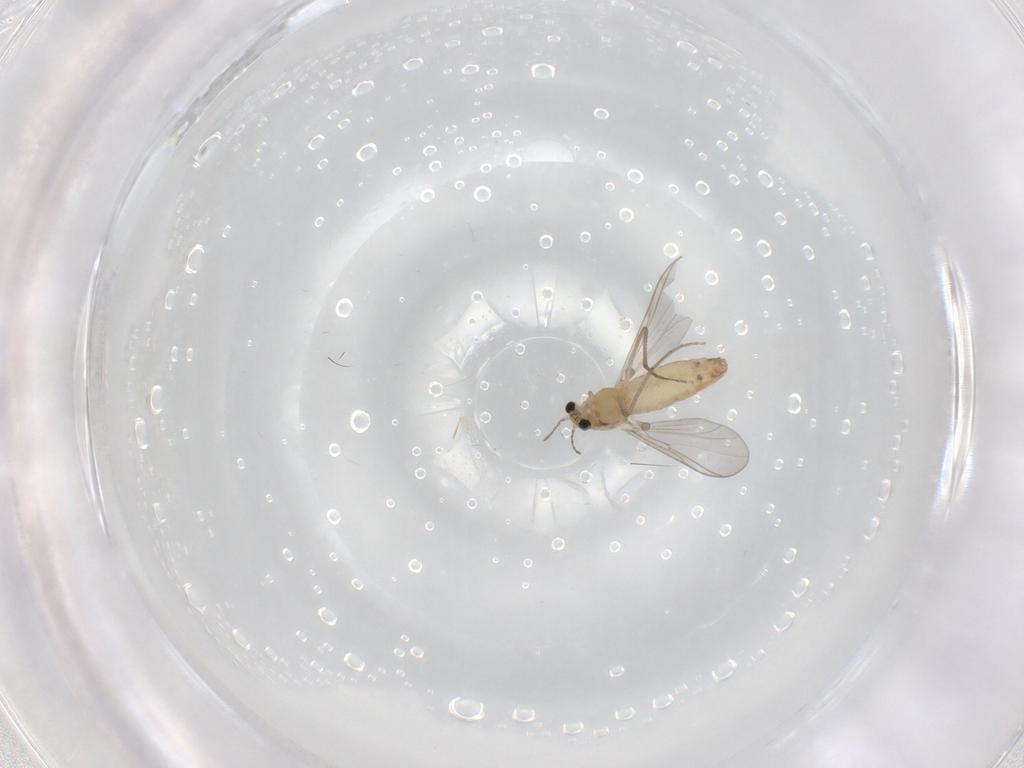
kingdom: Animalia
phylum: Arthropoda
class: Insecta
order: Diptera
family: Chironomidae
